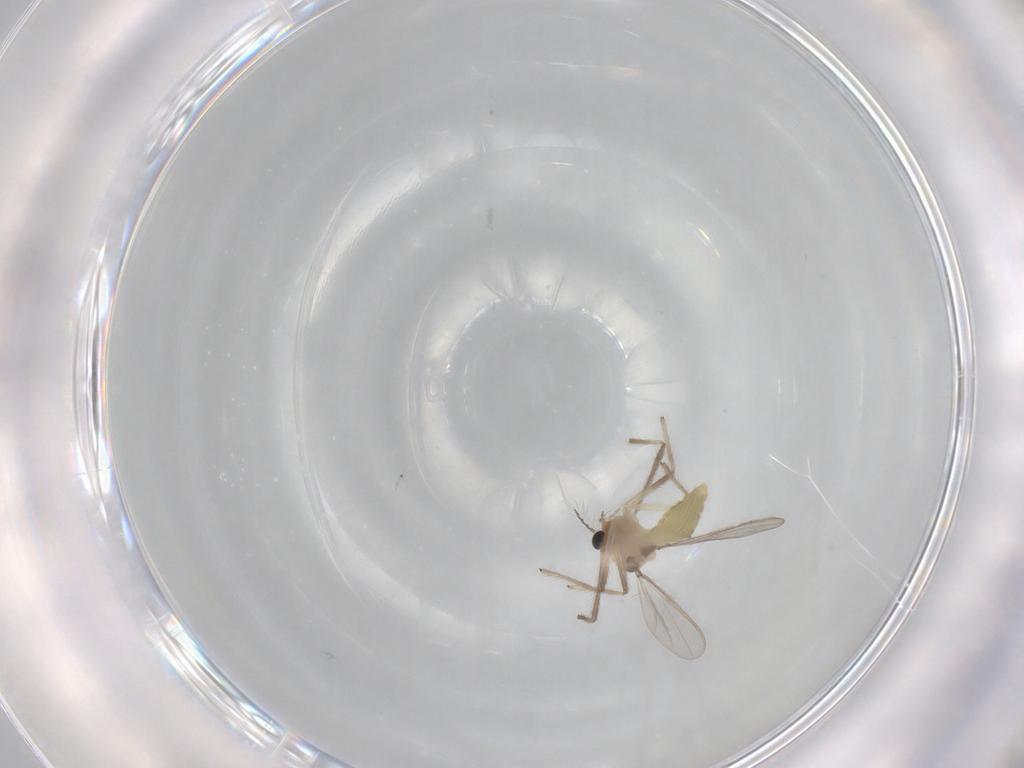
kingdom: Animalia
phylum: Arthropoda
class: Insecta
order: Diptera
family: Chironomidae
